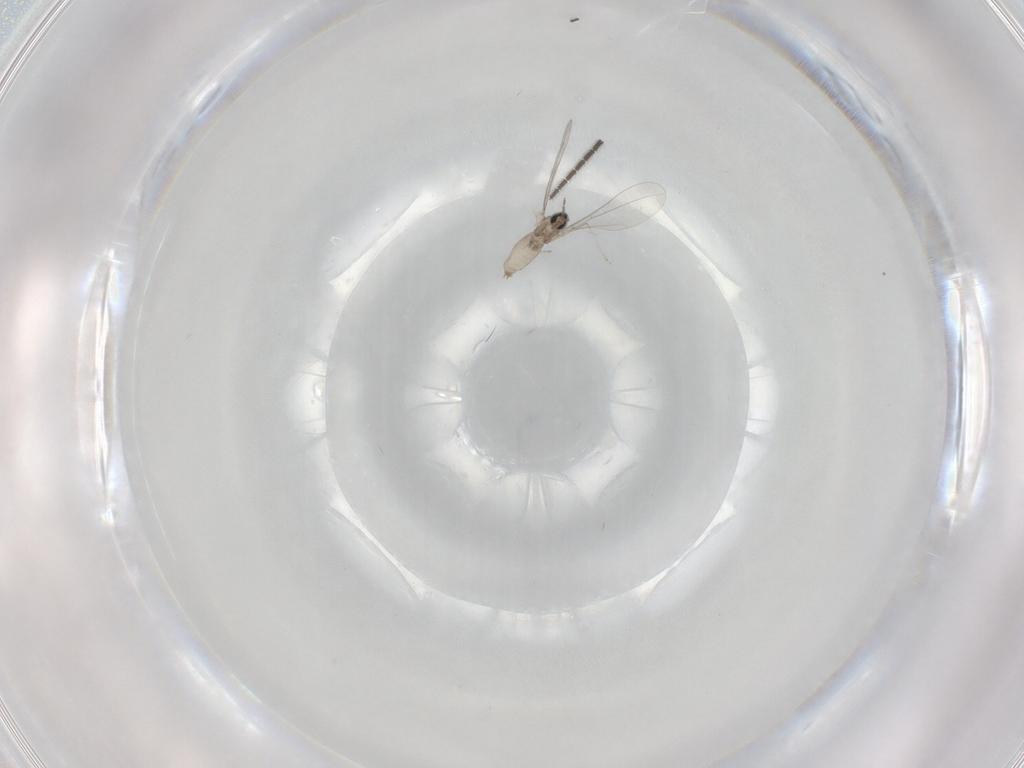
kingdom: Animalia
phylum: Arthropoda
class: Insecta
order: Diptera
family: Cecidomyiidae
